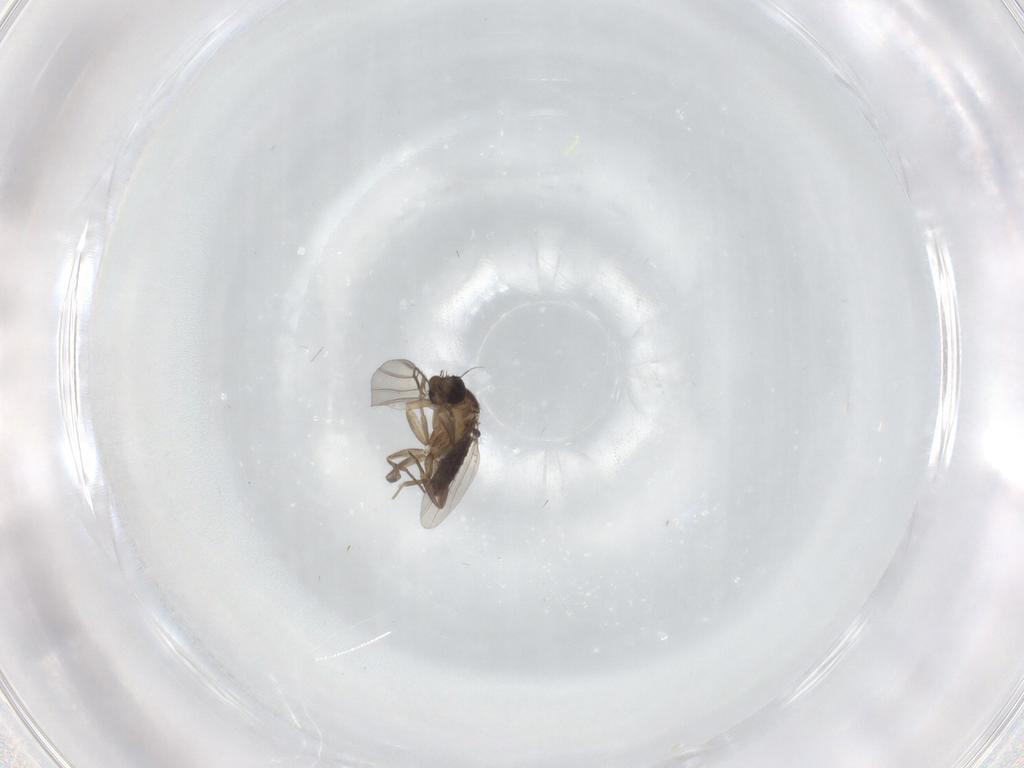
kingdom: Animalia
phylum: Arthropoda
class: Insecta
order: Diptera
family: Phoridae
